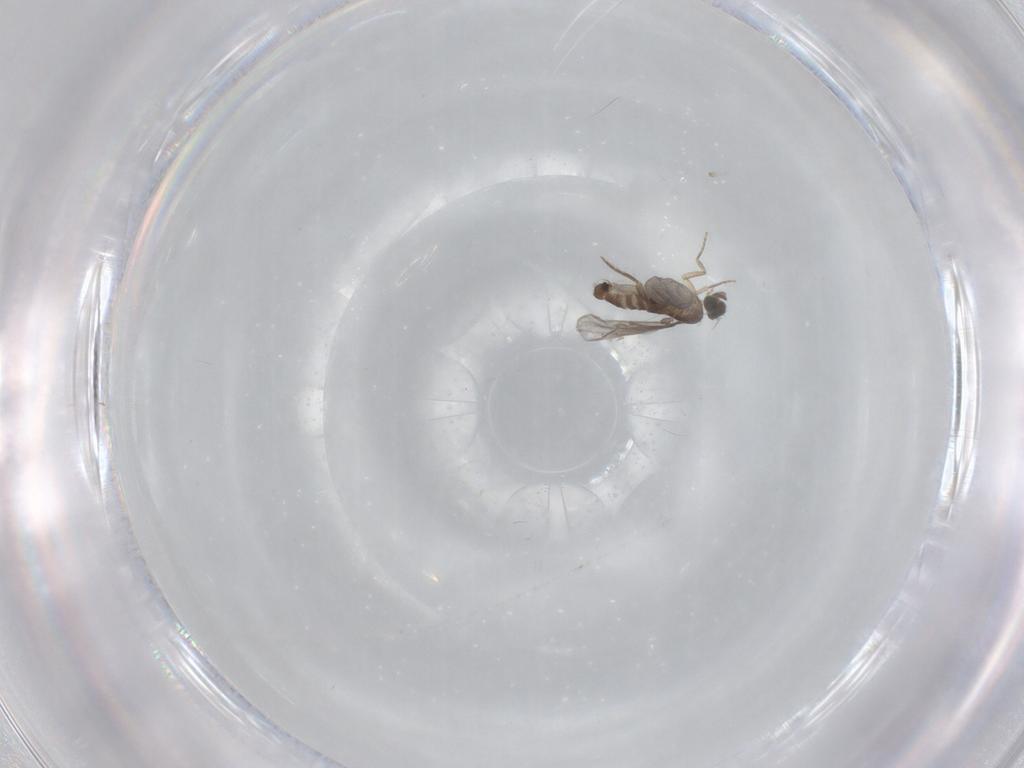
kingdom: Animalia
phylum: Arthropoda
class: Insecta
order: Diptera
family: Sciaridae
